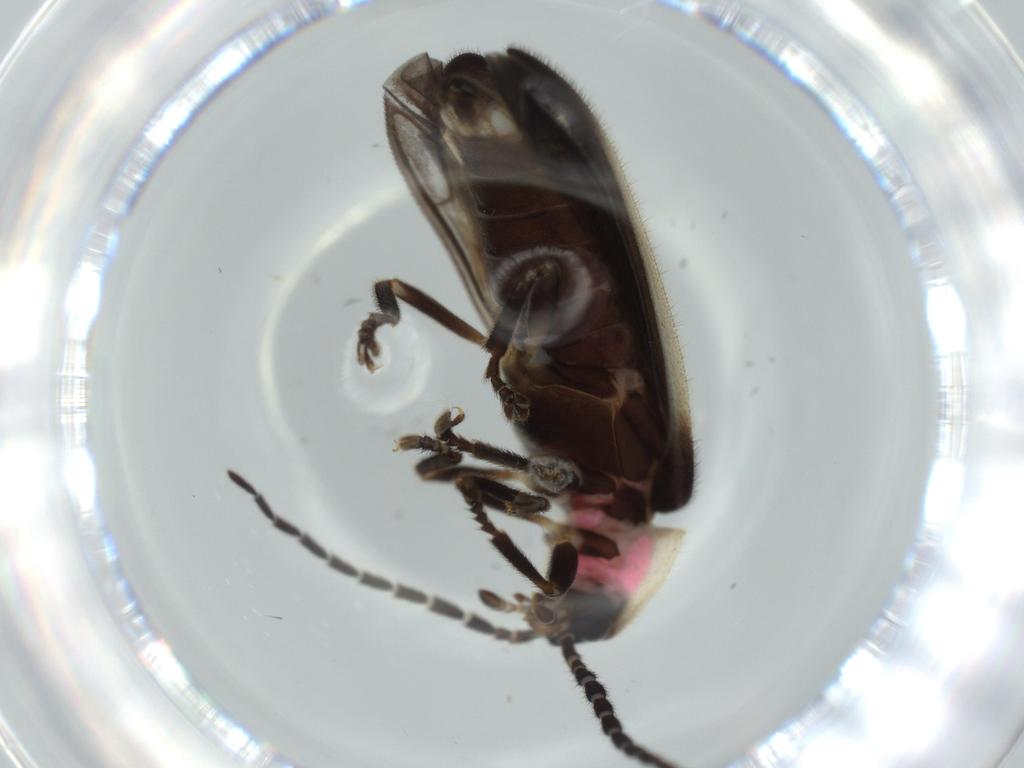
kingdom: Animalia
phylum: Arthropoda
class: Insecta
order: Coleoptera
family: Lampyridae
